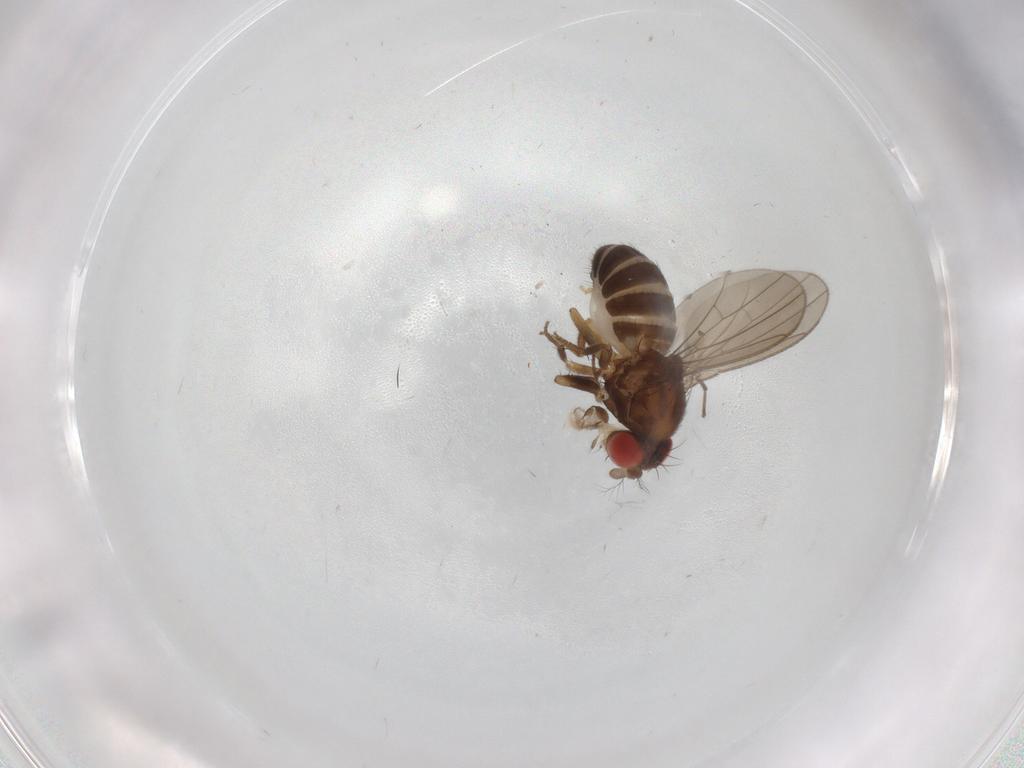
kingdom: Animalia
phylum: Arthropoda
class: Insecta
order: Diptera
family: Drosophilidae
